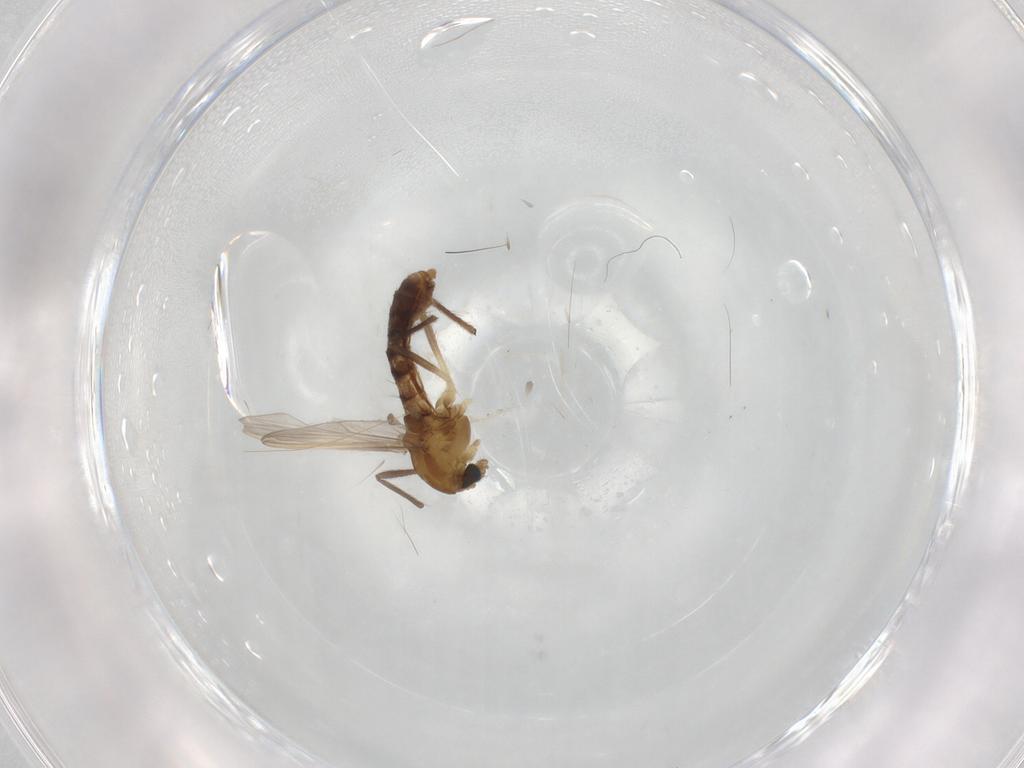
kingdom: Animalia
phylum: Arthropoda
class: Insecta
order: Diptera
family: Chironomidae
